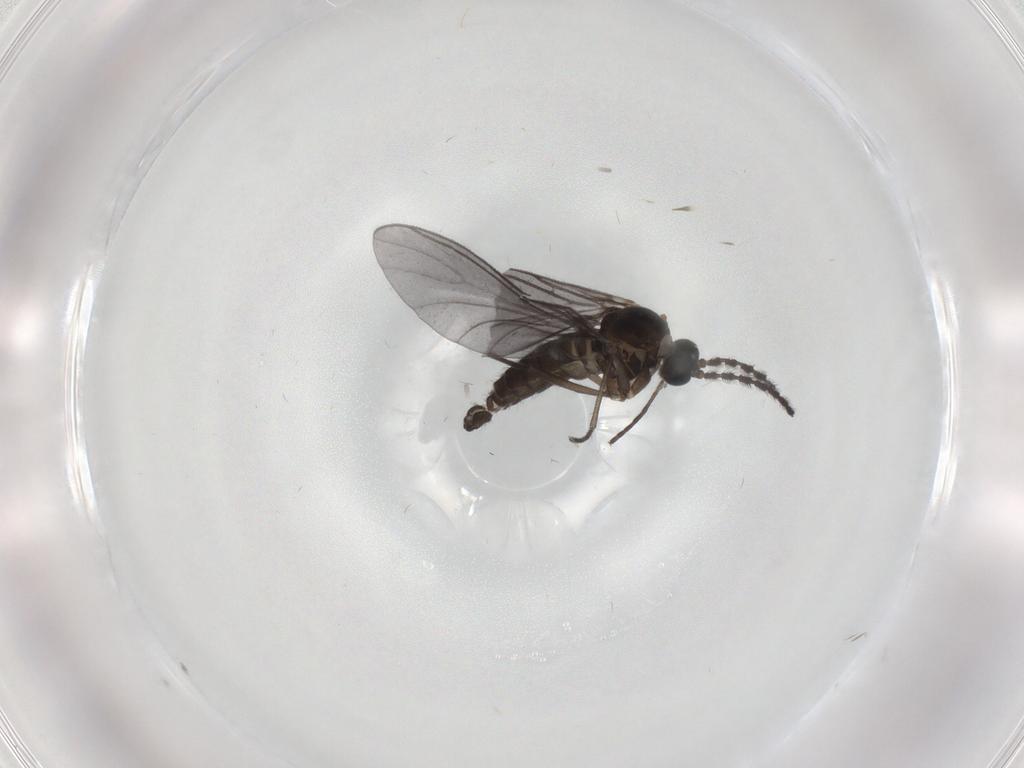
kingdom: Animalia
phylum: Arthropoda
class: Insecta
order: Diptera
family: Sciaridae
